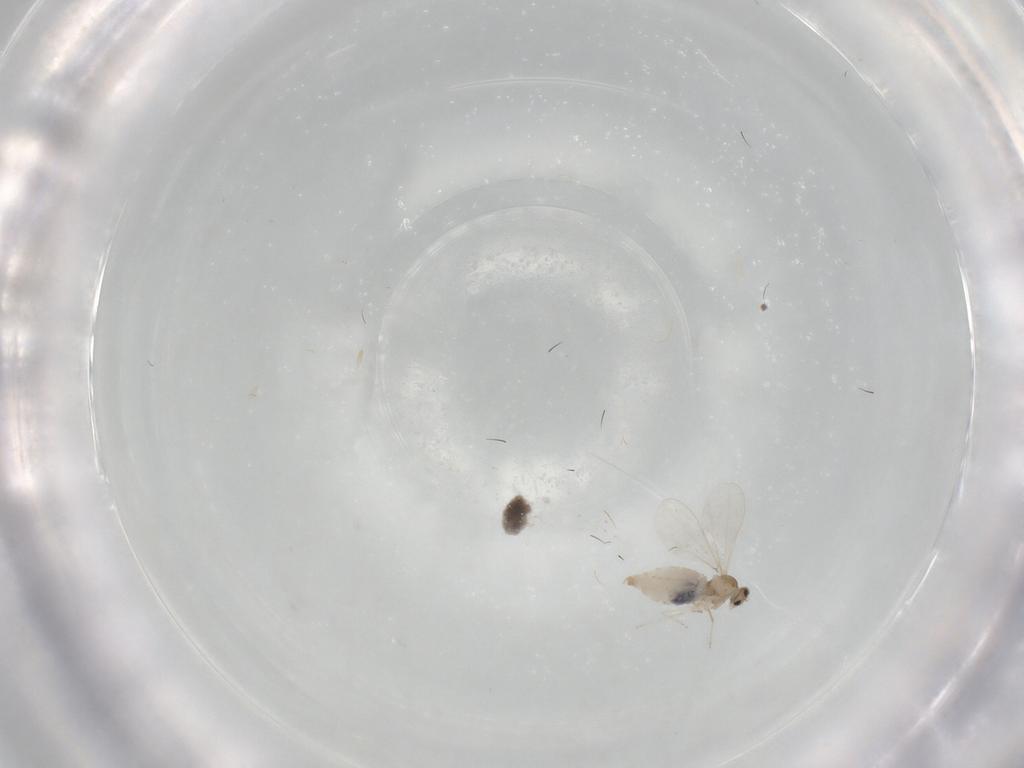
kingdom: Animalia
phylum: Arthropoda
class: Insecta
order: Diptera
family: Cecidomyiidae
